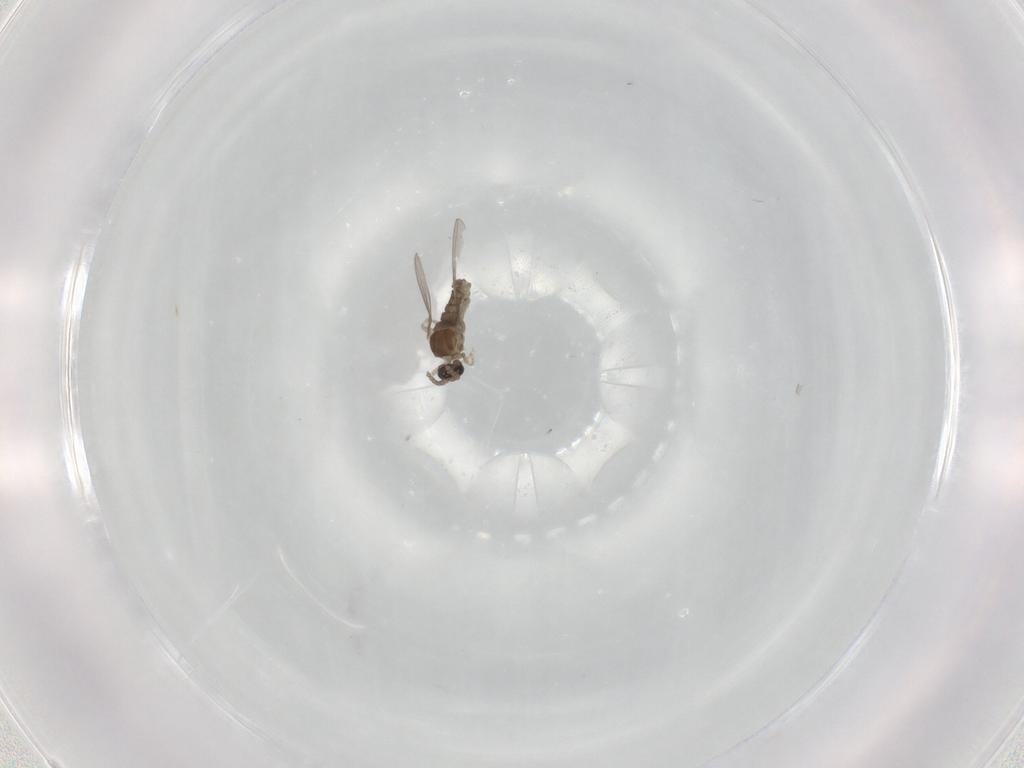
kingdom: Animalia
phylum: Arthropoda
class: Insecta
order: Diptera
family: Cecidomyiidae
